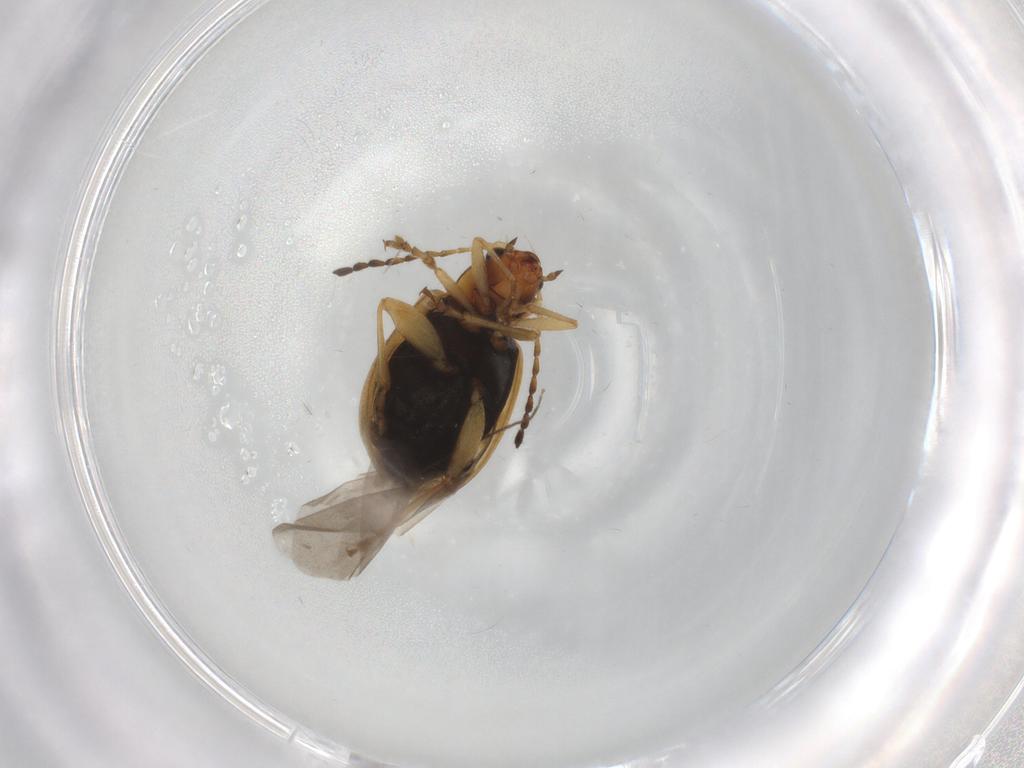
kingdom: Animalia
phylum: Arthropoda
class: Insecta
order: Coleoptera
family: Chrysomelidae
